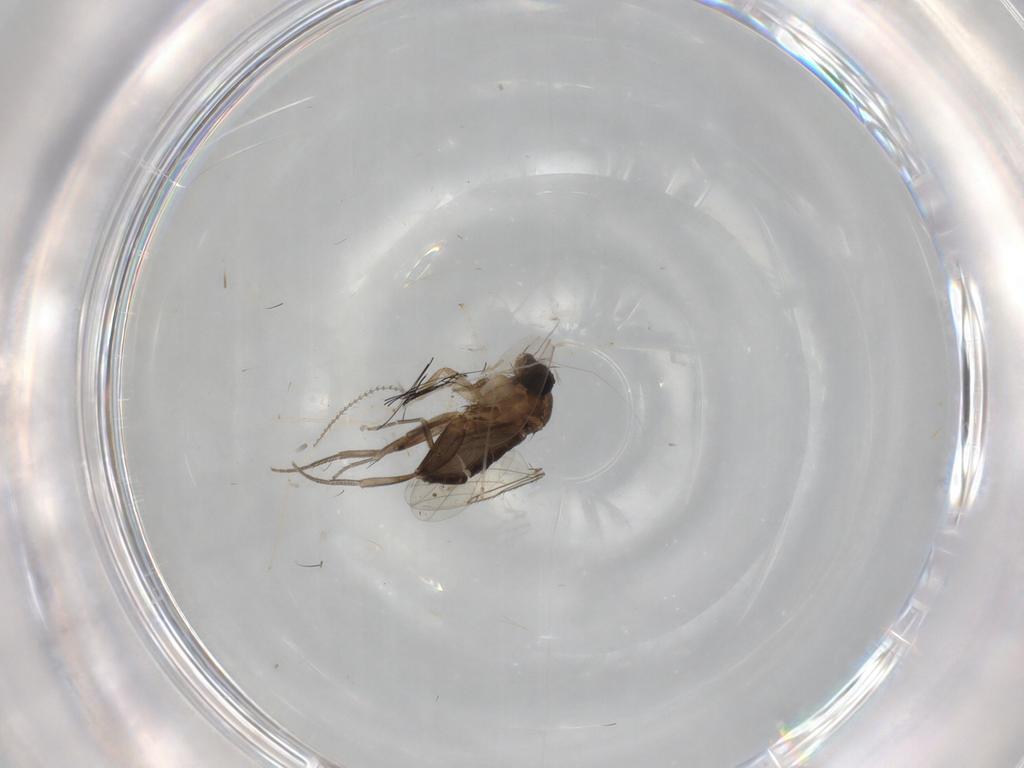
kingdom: Animalia
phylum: Arthropoda
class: Insecta
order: Diptera
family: Phoridae
